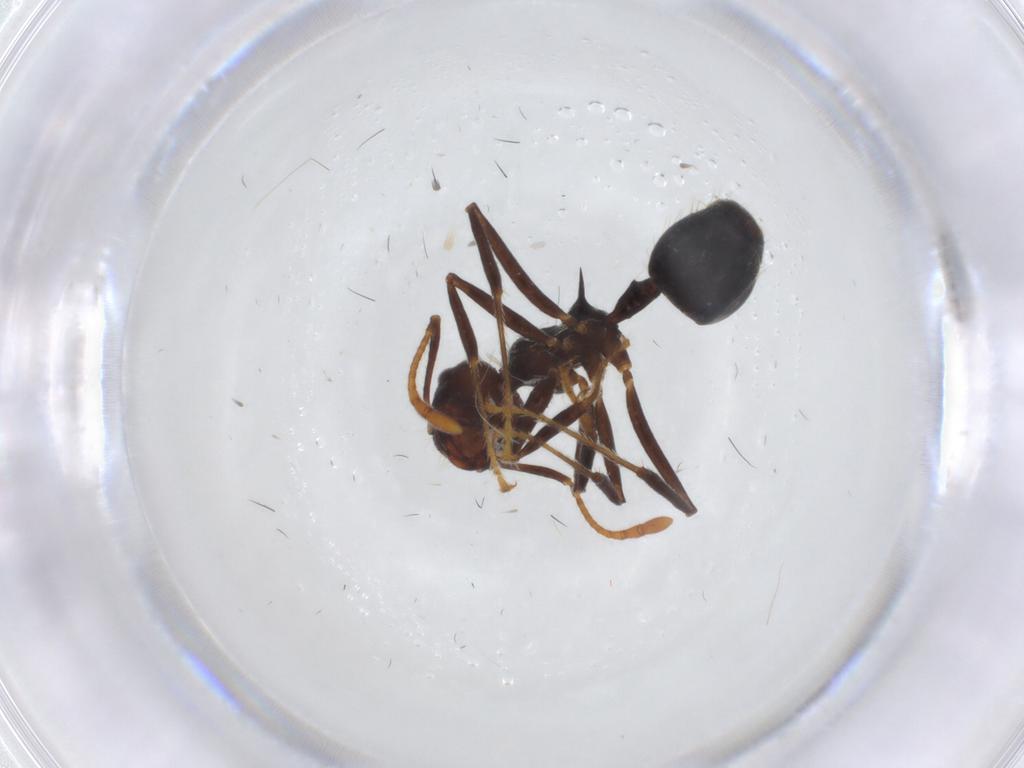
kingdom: Animalia
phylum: Arthropoda
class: Insecta
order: Hymenoptera
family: Formicidae
